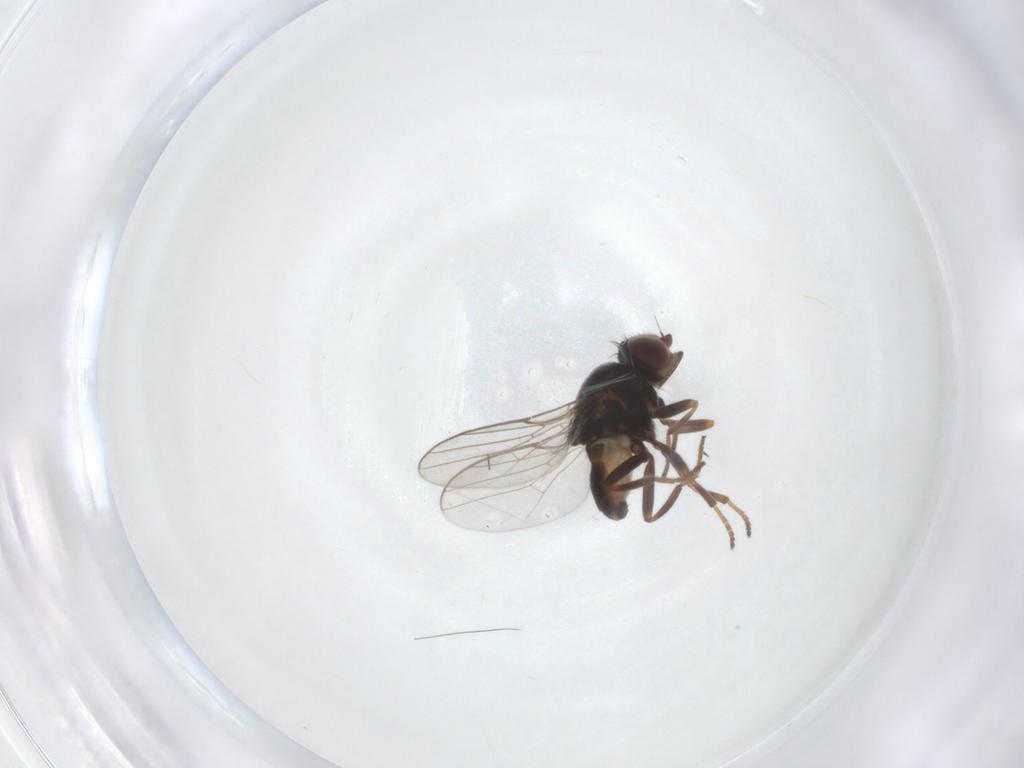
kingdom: Animalia
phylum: Arthropoda
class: Insecta
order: Diptera
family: Chloropidae
